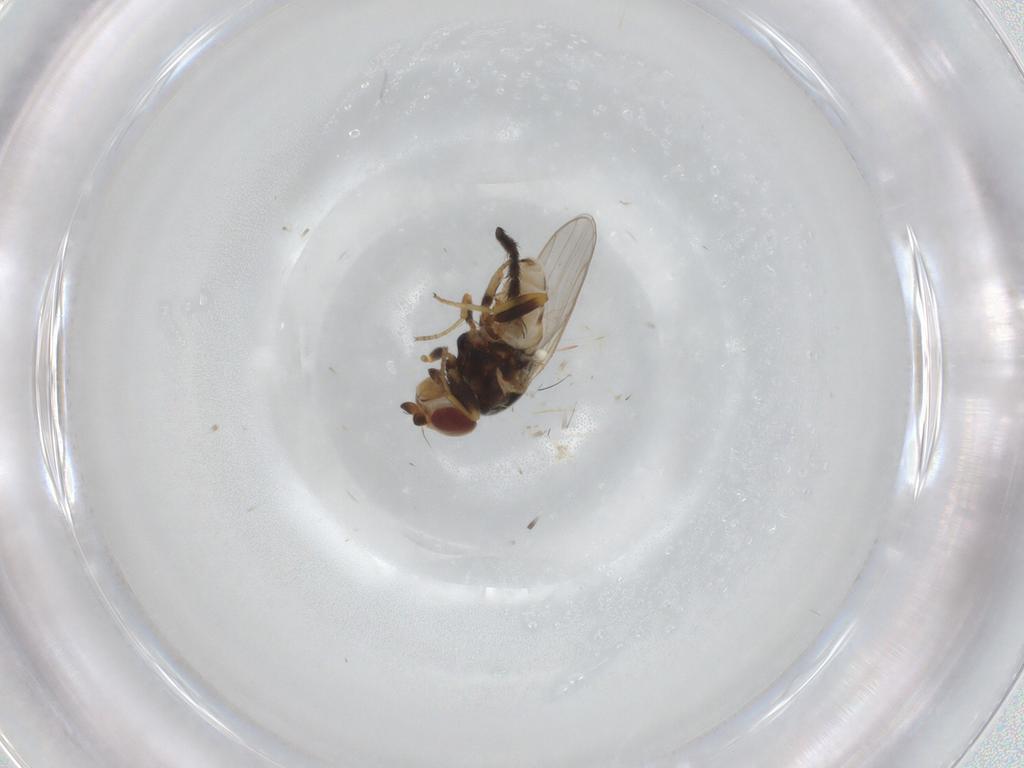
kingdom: Animalia
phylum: Arthropoda
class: Insecta
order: Diptera
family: Chloropidae
